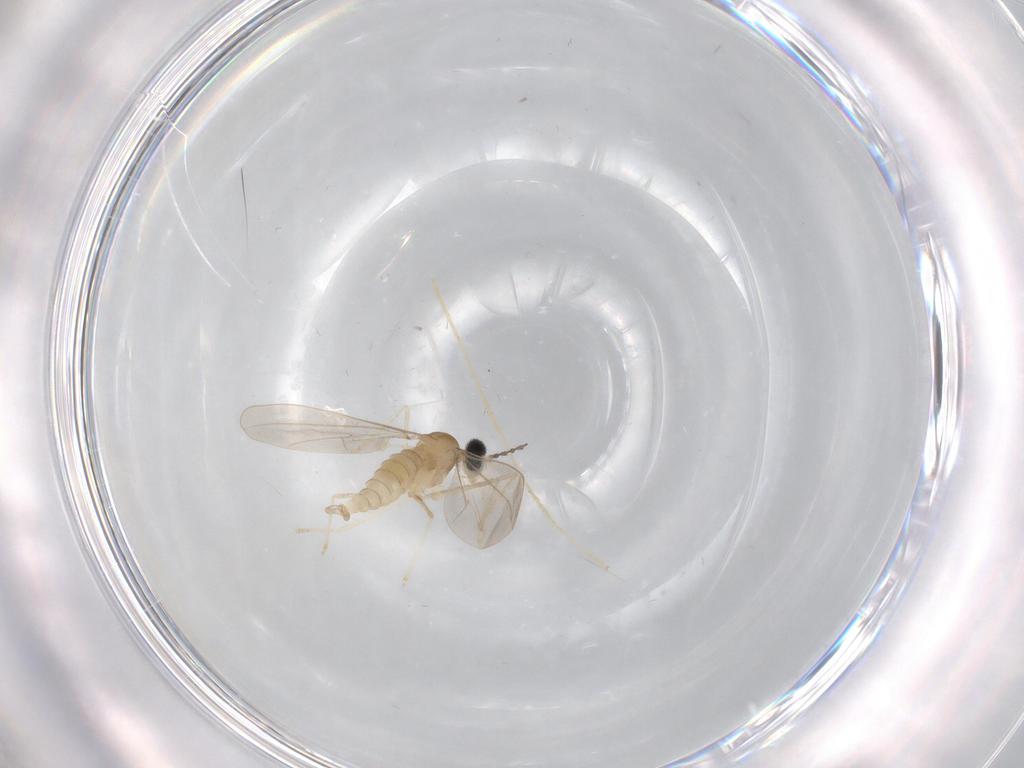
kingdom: Animalia
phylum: Arthropoda
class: Insecta
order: Diptera
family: Cecidomyiidae
